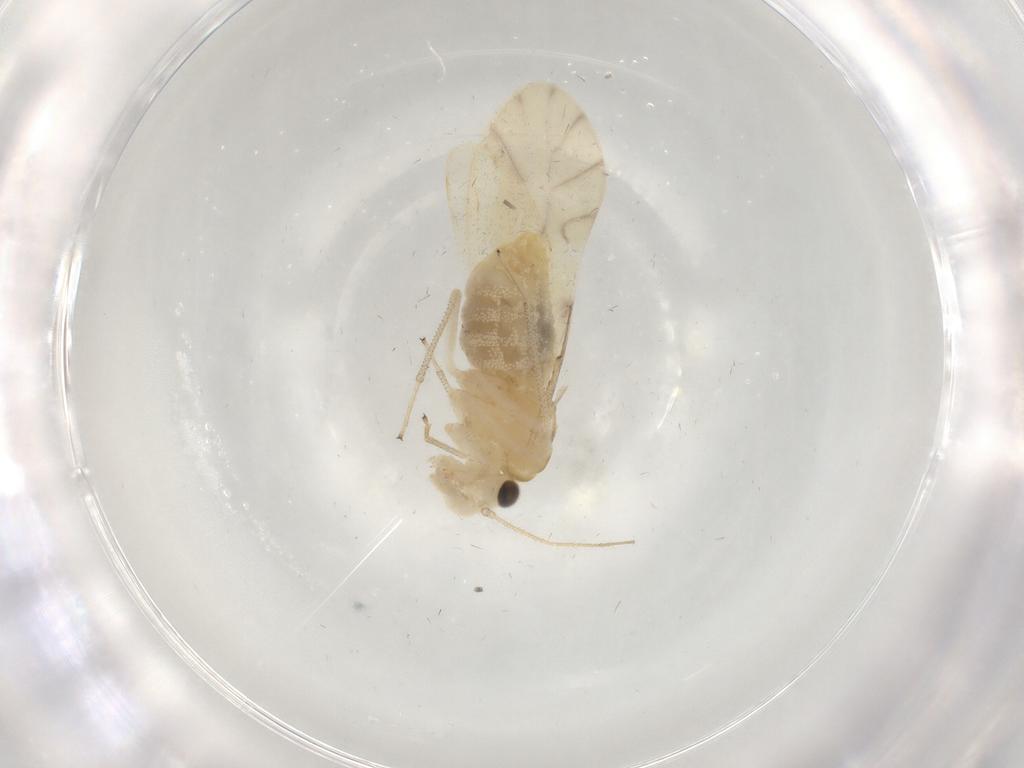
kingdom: Animalia
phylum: Arthropoda
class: Insecta
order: Psocodea
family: Caeciliusidae
